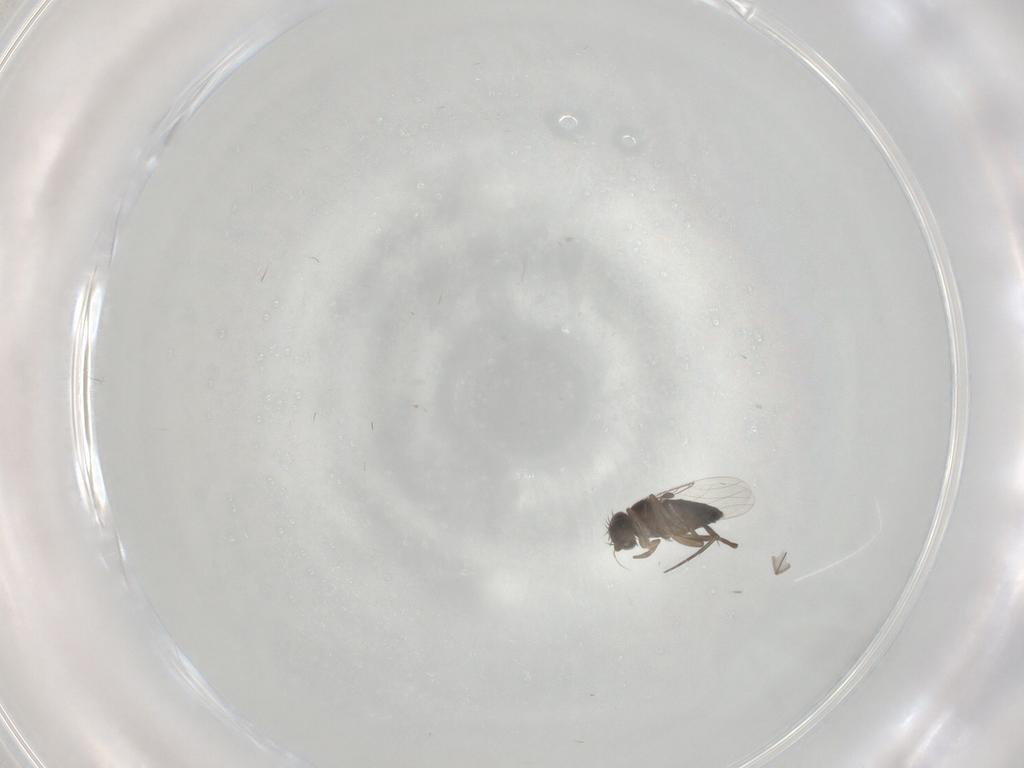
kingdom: Animalia
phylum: Arthropoda
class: Insecta
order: Diptera
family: Phoridae
